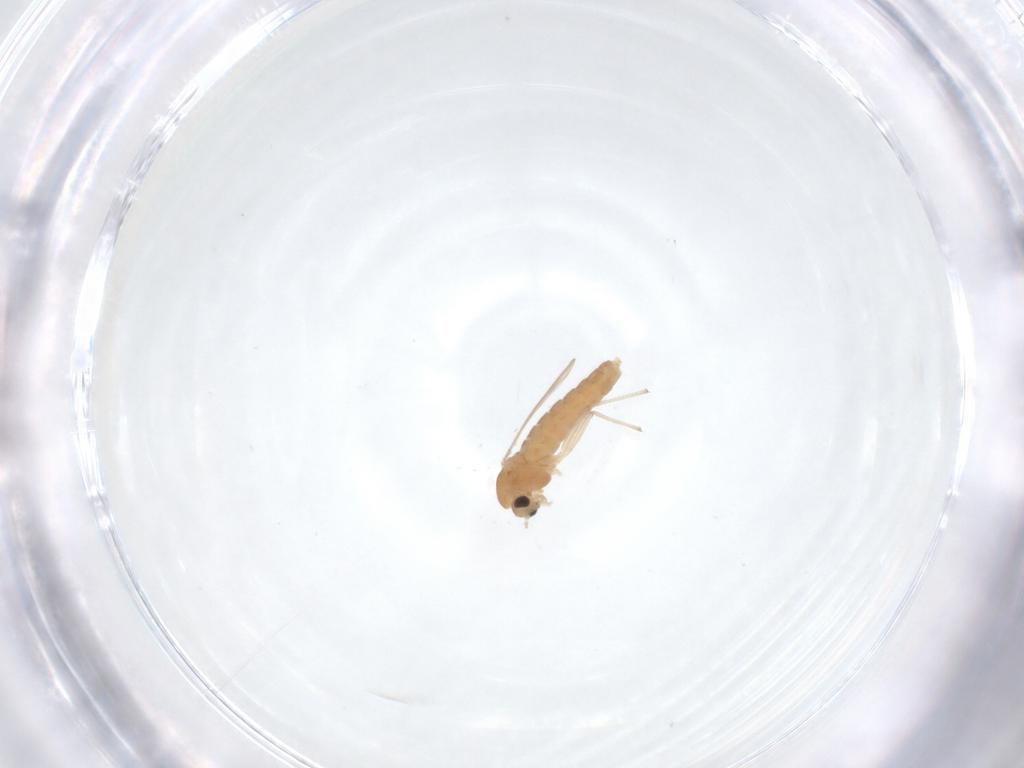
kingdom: Animalia
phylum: Arthropoda
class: Insecta
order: Diptera
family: Chironomidae
